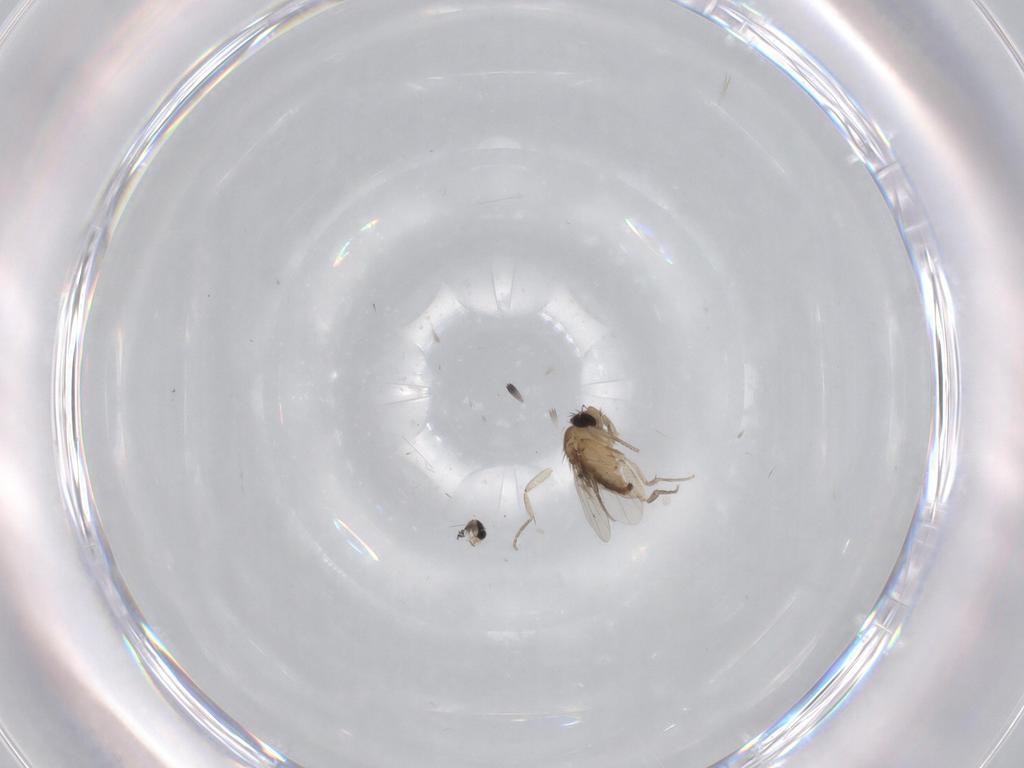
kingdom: Animalia
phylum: Arthropoda
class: Insecta
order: Diptera
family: Cecidomyiidae
